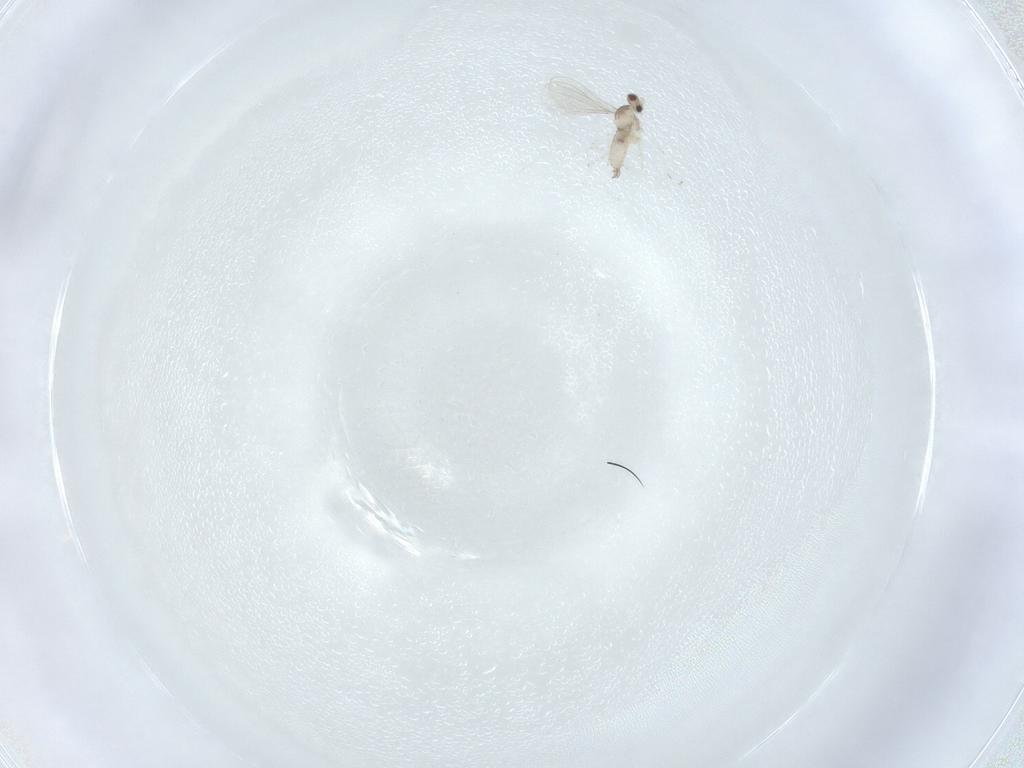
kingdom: Animalia
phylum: Arthropoda
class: Insecta
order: Diptera
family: Cecidomyiidae
